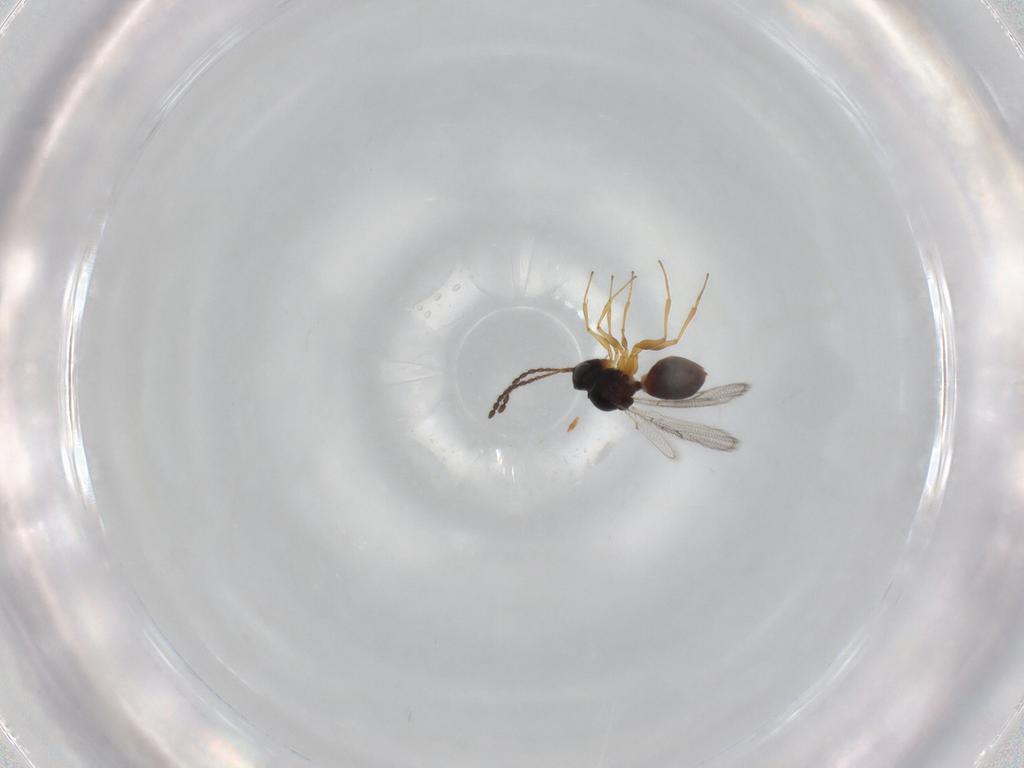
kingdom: Animalia
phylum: Arthropoda
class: Insecta
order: Hymenoptera
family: Figitidae
